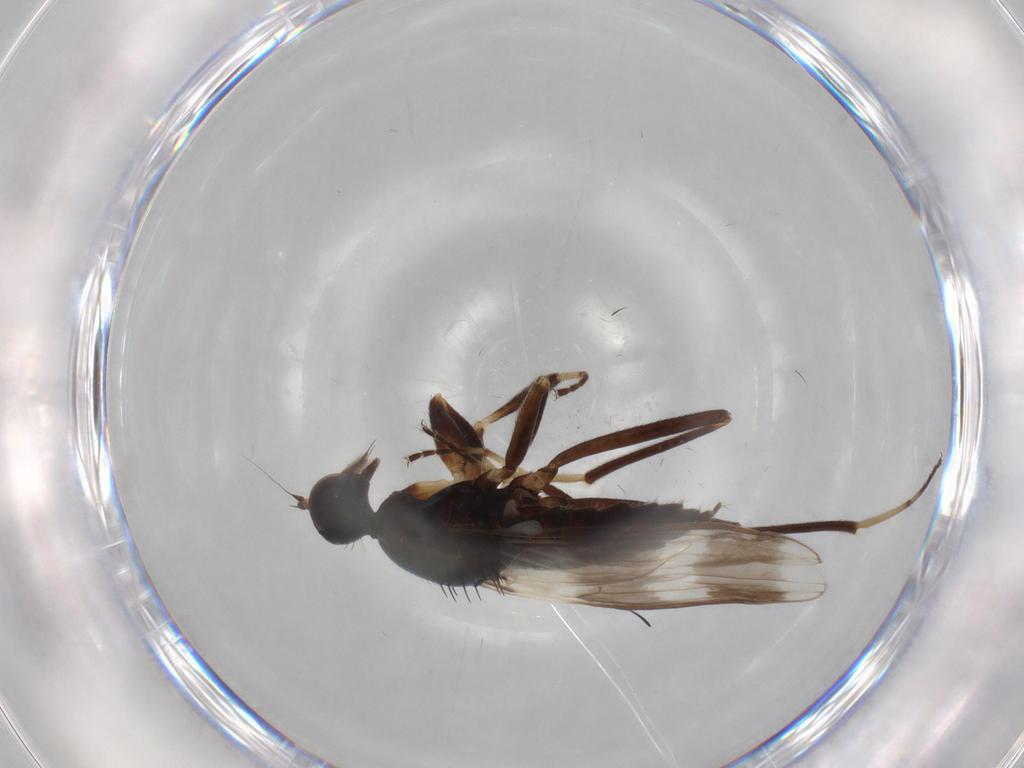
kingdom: Animalia
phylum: Arthropoda
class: Insecta
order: Diptera
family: Hybotidae
